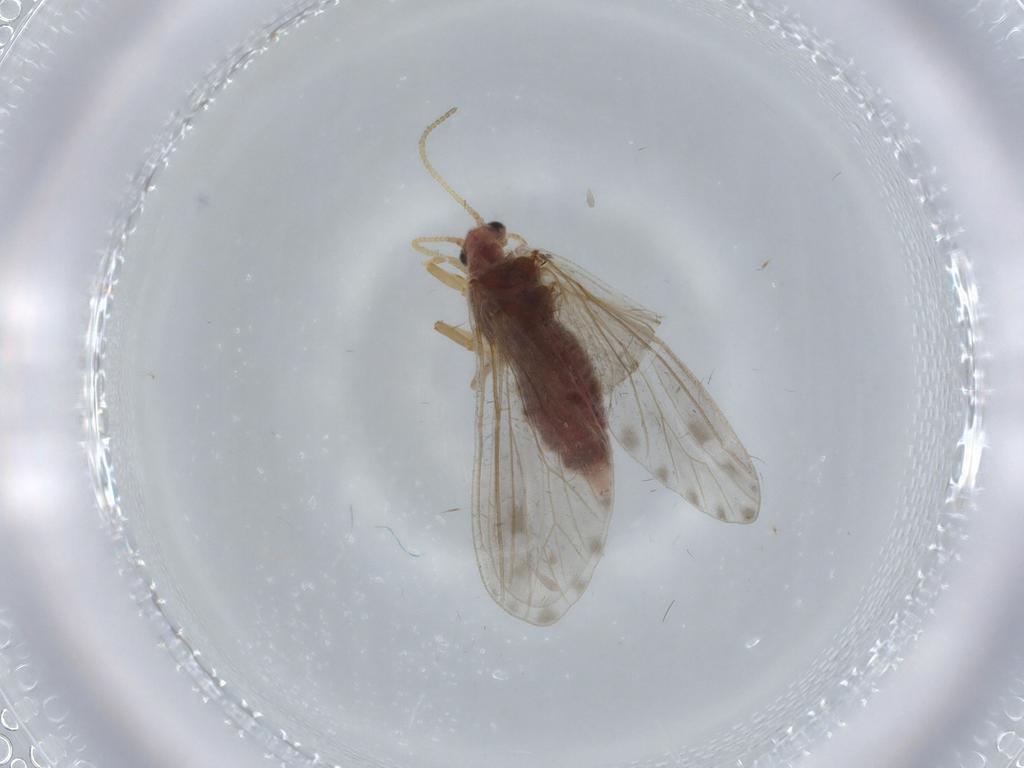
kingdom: Animalia
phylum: Arthropoda
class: Insecta
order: Neuroptera
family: Coniopterygidae
